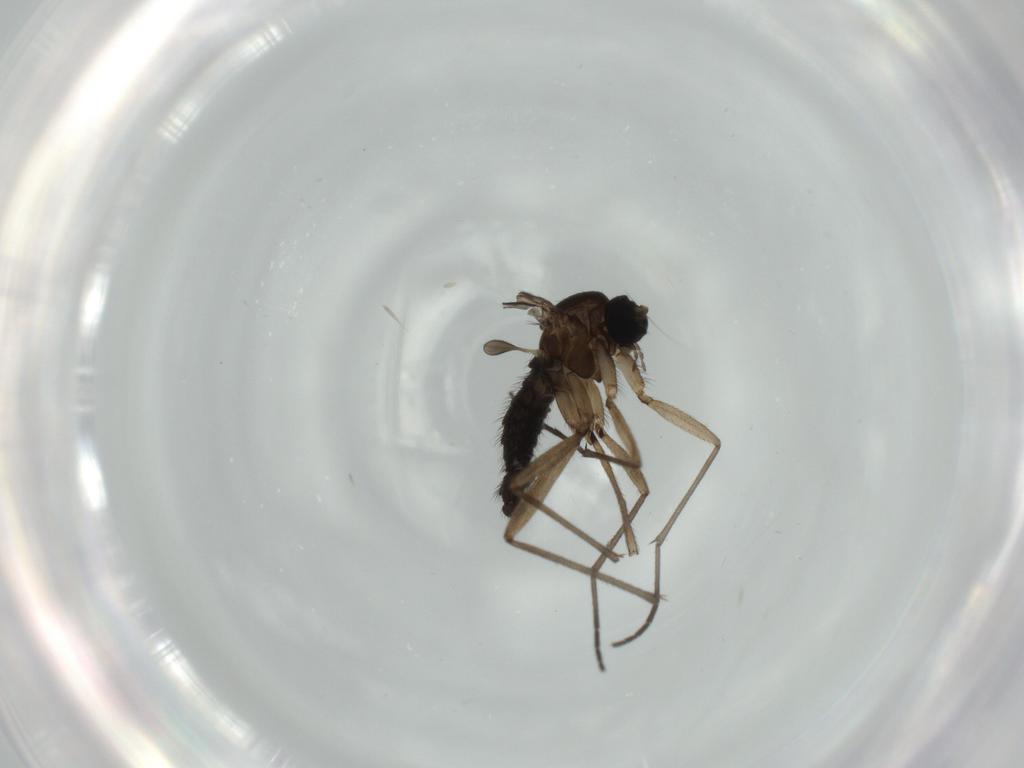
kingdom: Animalia
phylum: Arthropoda
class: Insecta
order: Diptera
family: Sciaridae
